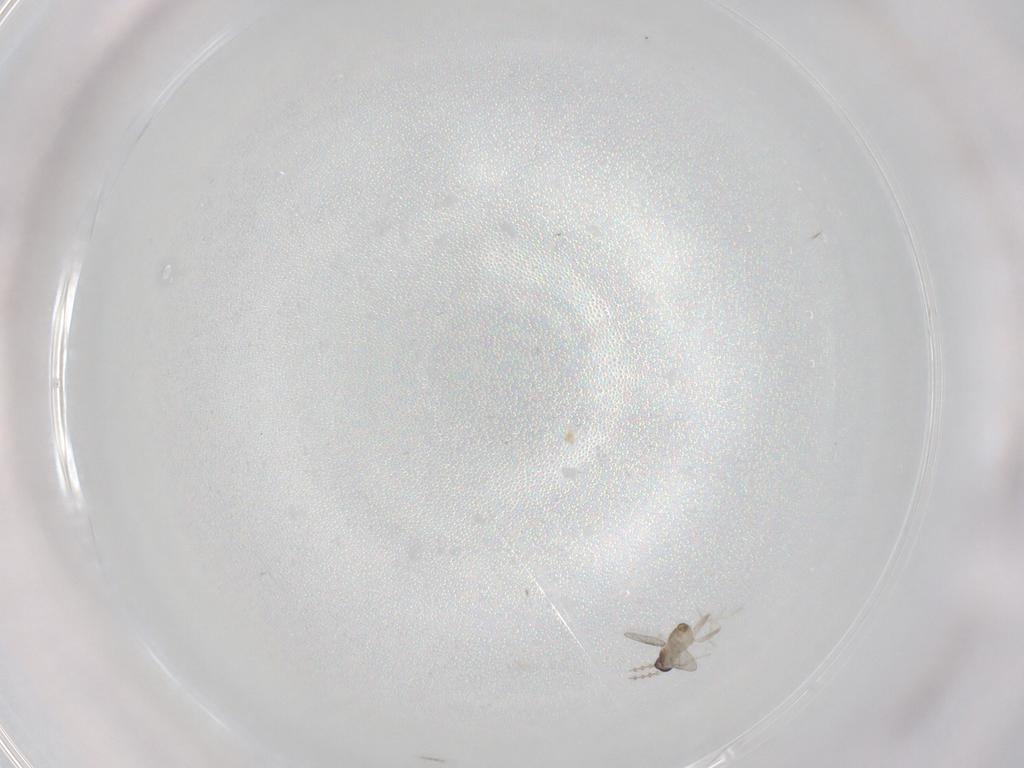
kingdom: Animalia
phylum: Arthropoda
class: Insecta
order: Diptera
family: Cecidomyiidae
